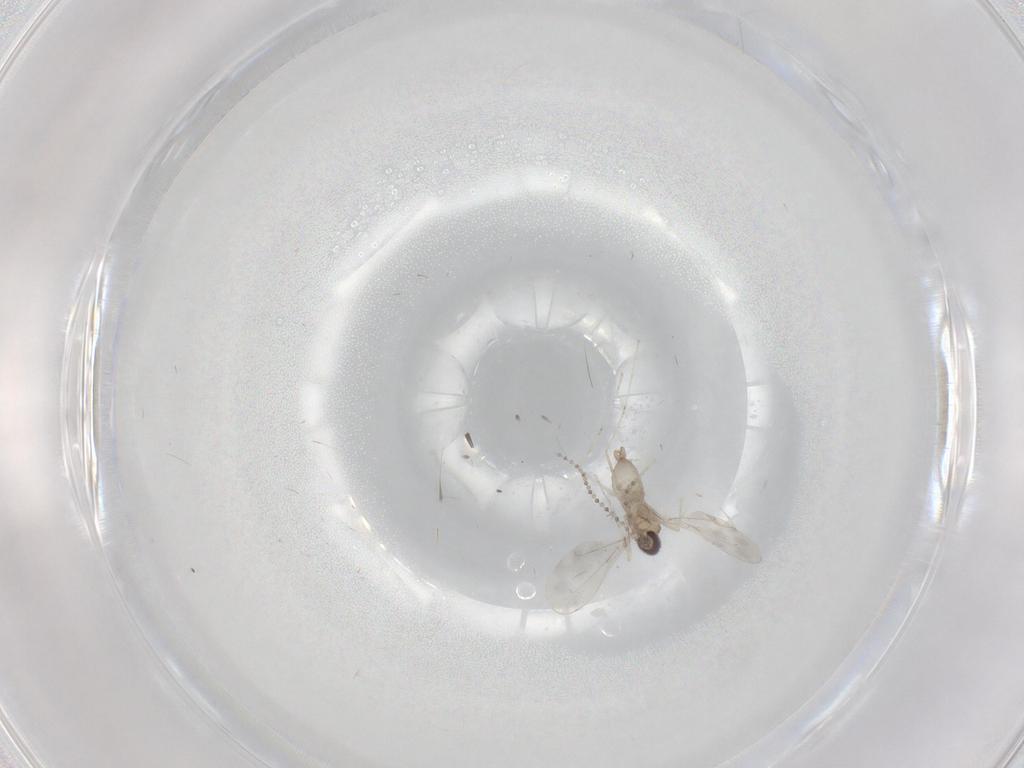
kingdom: Animalia
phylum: Arthropoda
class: Insecta
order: Diptera
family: Cecidomyiidae
